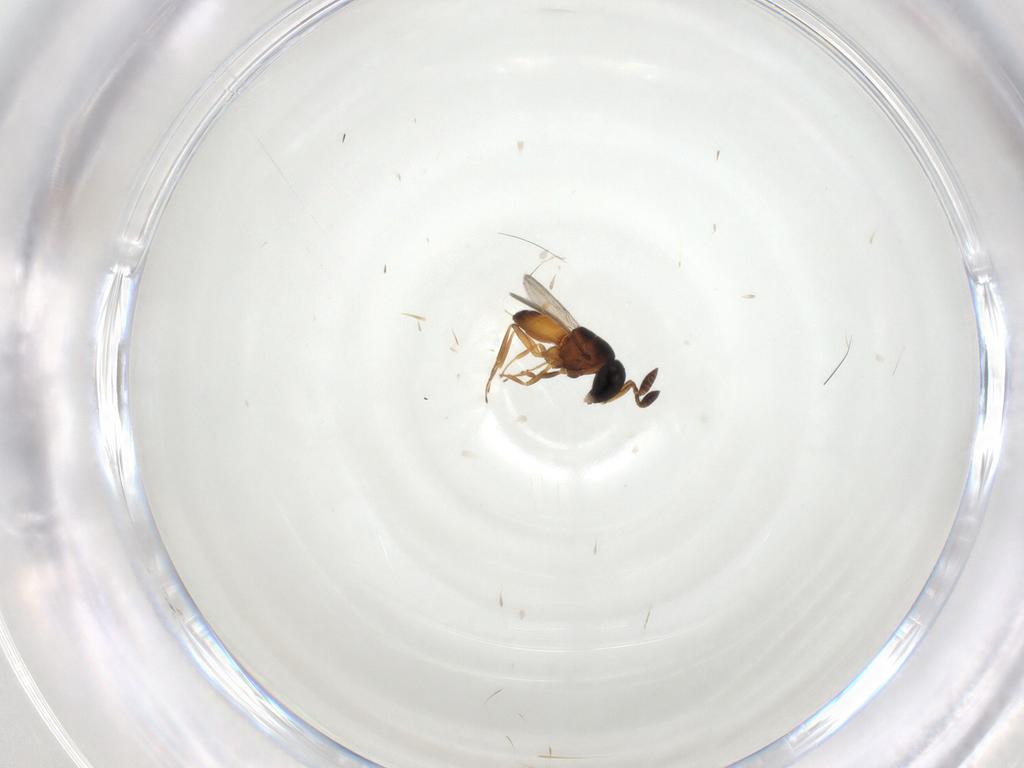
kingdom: Animalia
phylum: Arthropoda
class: Insecta
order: Hymenoptera
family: Scelionidae
